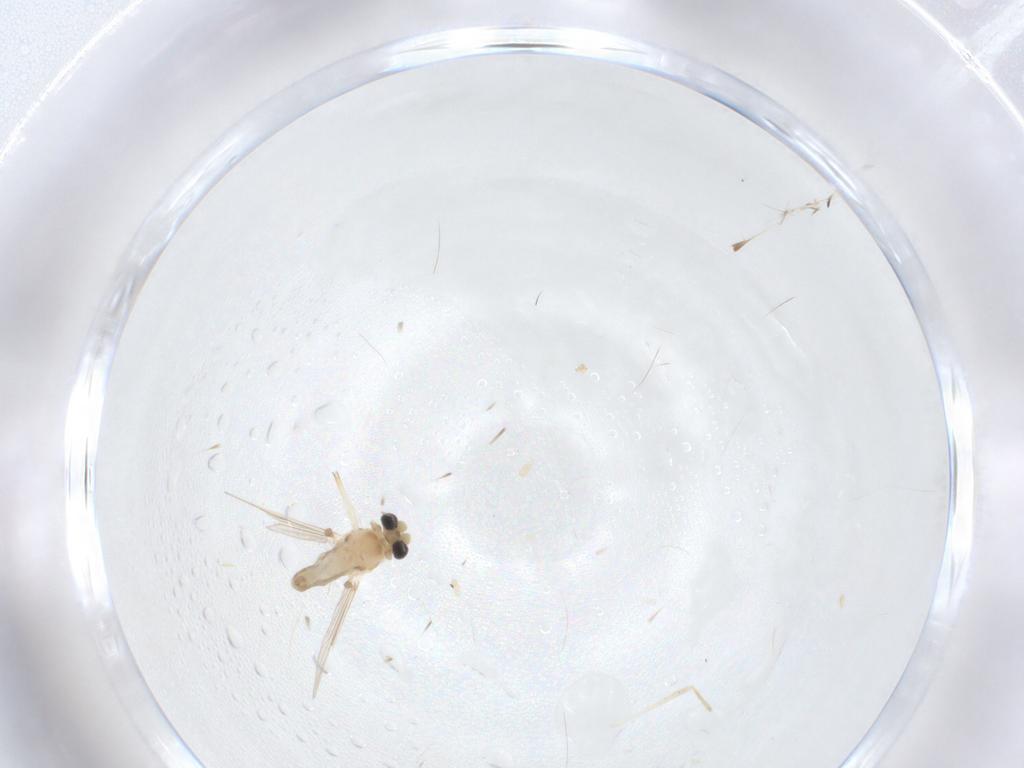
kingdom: Animalia
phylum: Arthropoda
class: Insecta
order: Diptera
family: Chironomidae
